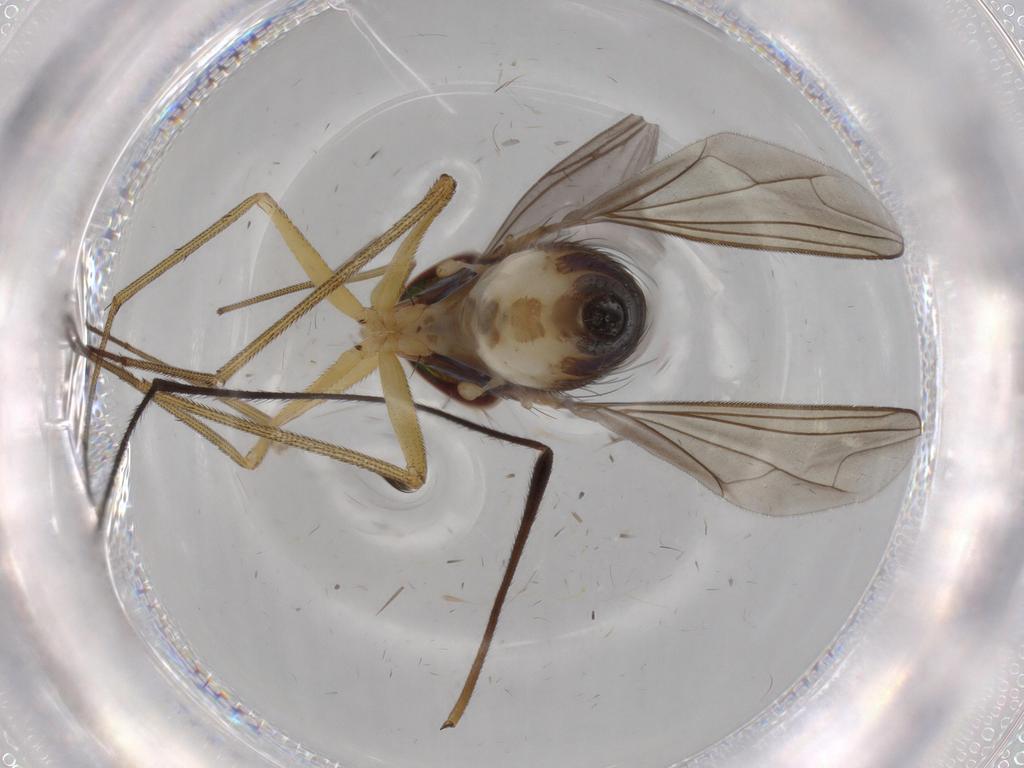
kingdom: Animalia
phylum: Arthropoda
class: Insecta
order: Diptera
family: Dolichopodidae
